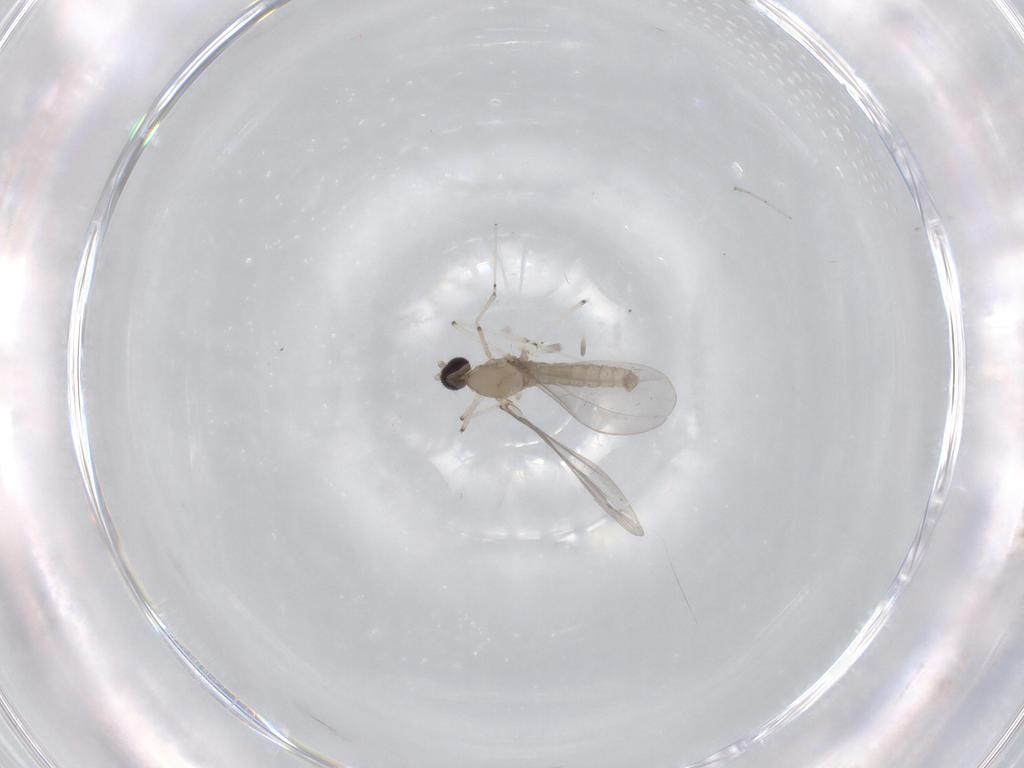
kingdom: Animalia
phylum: Arthropoda
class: Insecta
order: Diptera
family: Cecidomyiidae
